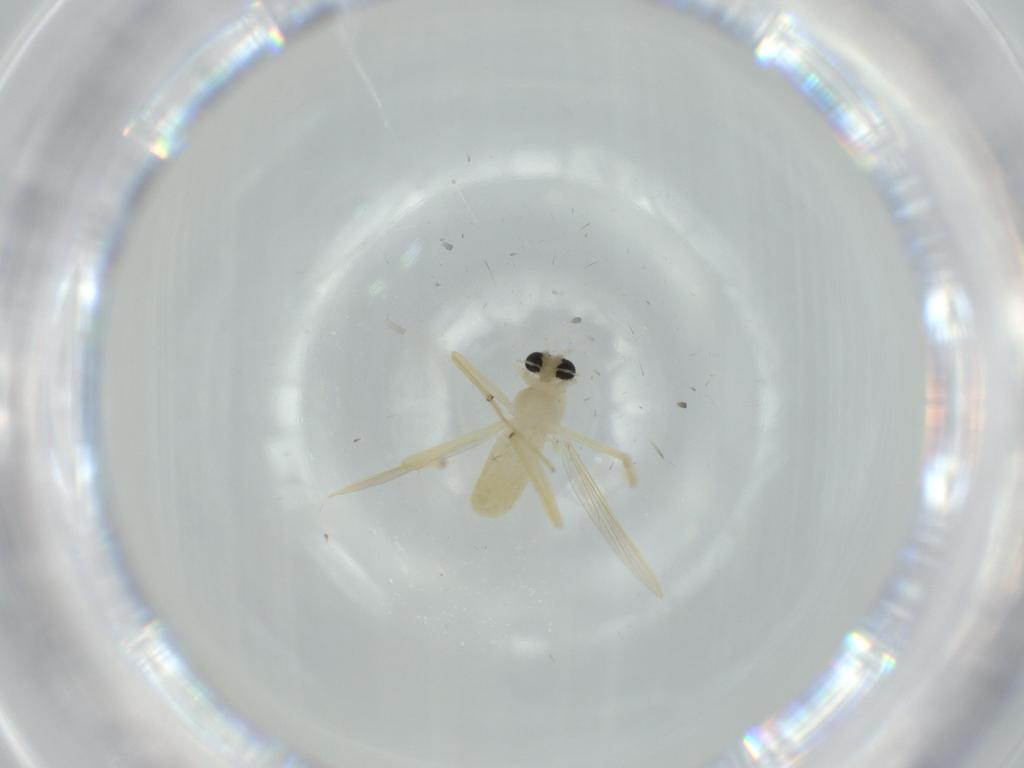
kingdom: Animalia
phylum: Arthropoda
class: Insecta
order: Diptera
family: Chironomidae
